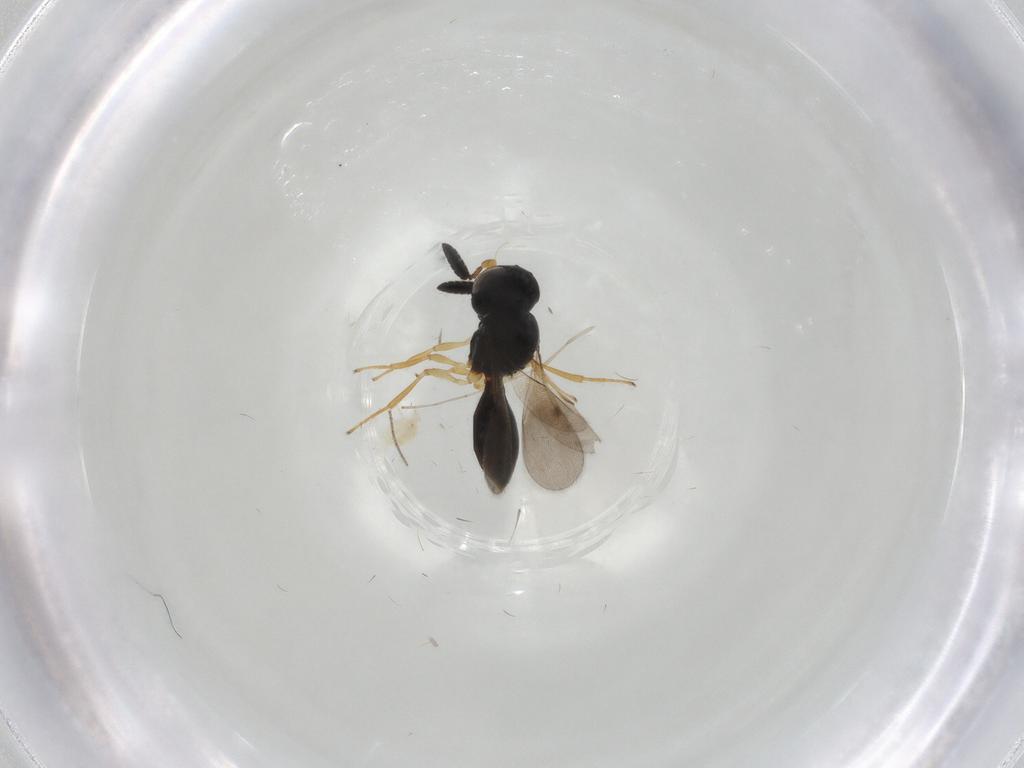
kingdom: Animalia
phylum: Arthropoda
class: Insecta
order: Hymenoptera
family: Scelionidae
